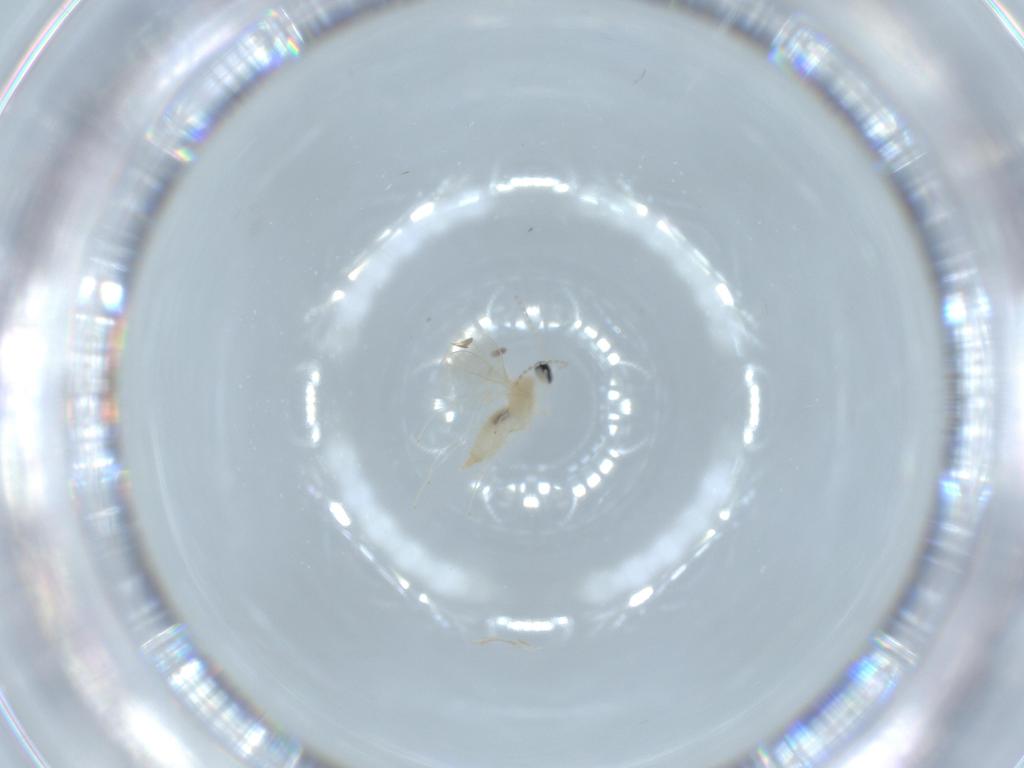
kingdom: Animalia
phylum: Arthropoda
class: Insecta
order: Diptera
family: Cecidomyiidae
